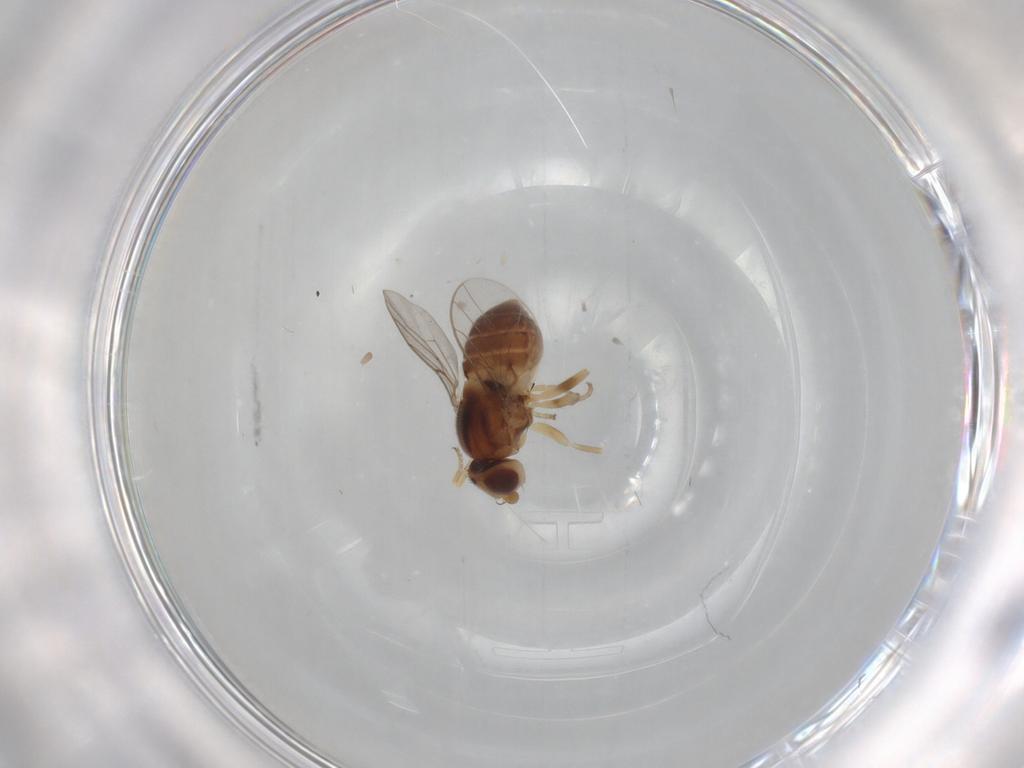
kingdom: Animalia
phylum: Arthropoda
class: Insecta
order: Diptera
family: Chloropidae
